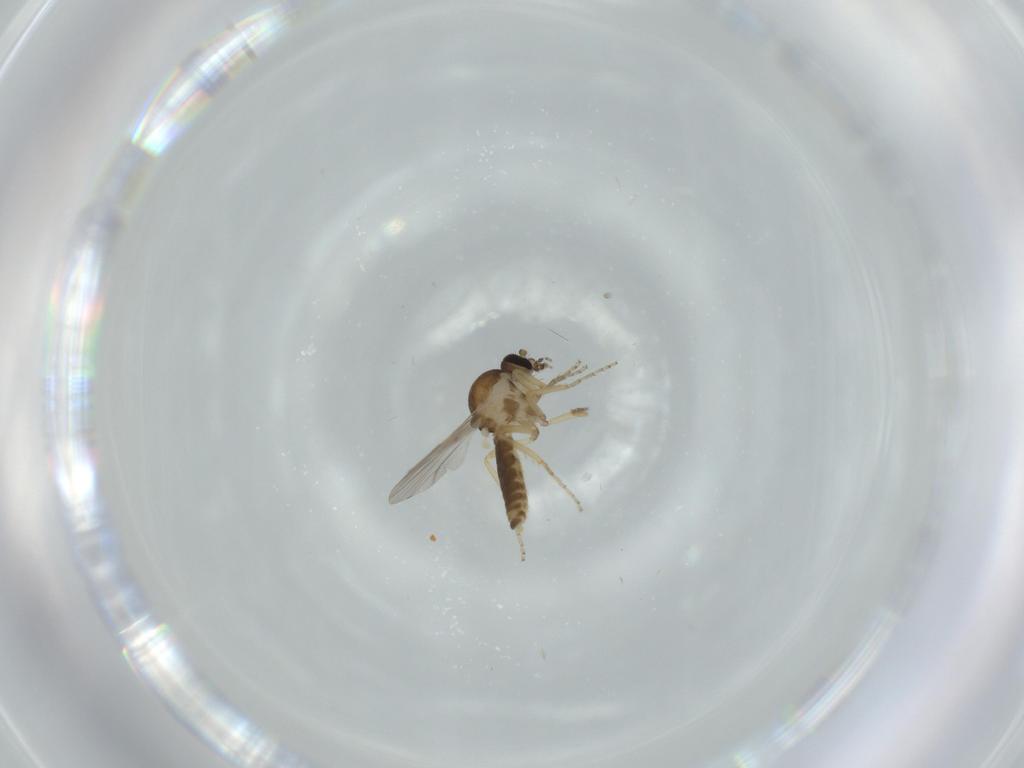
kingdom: Animalia
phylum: Arthropoda
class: Insecta
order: Diptera
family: Ceratopogonidae
